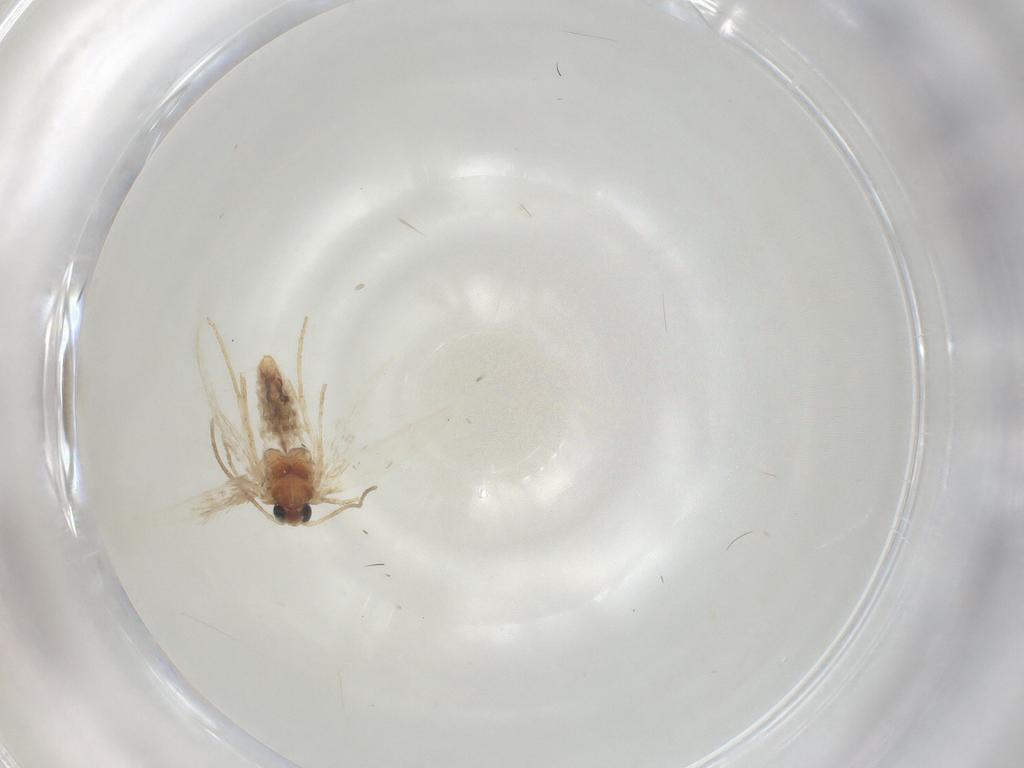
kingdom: Animalia
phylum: Arthropoda
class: Insecta
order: Lepidoptera
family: Nepticulidae
